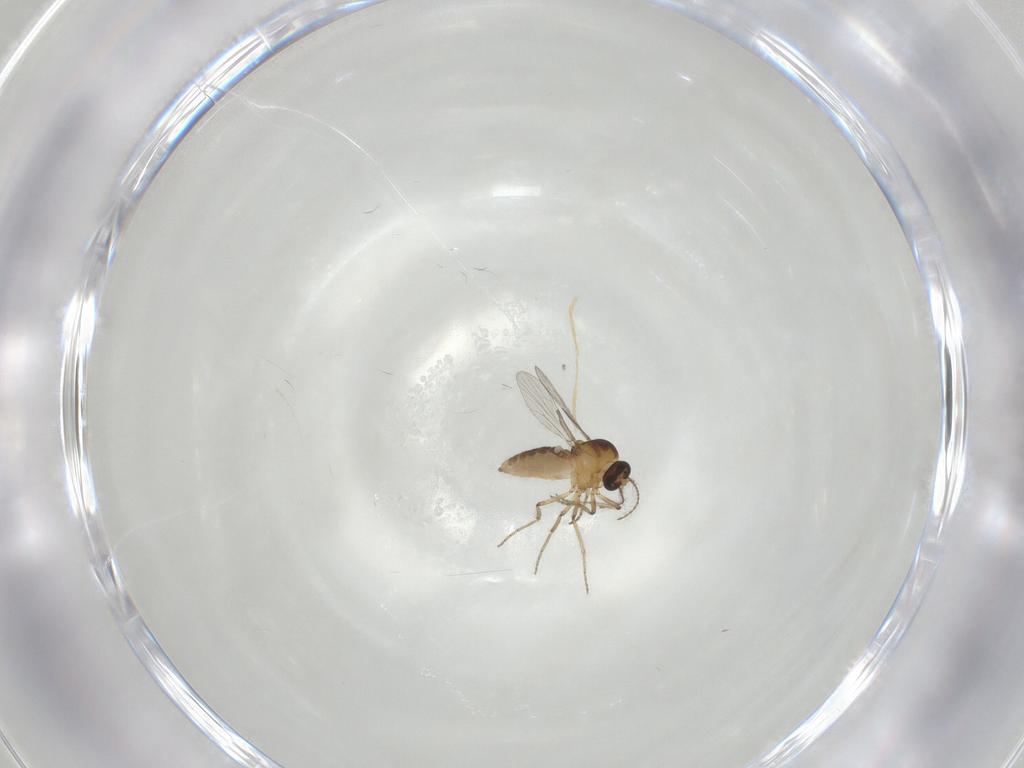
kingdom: Animalia
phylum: Arthropoda
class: Insecta
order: Diptera
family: Ceratopogonidae
